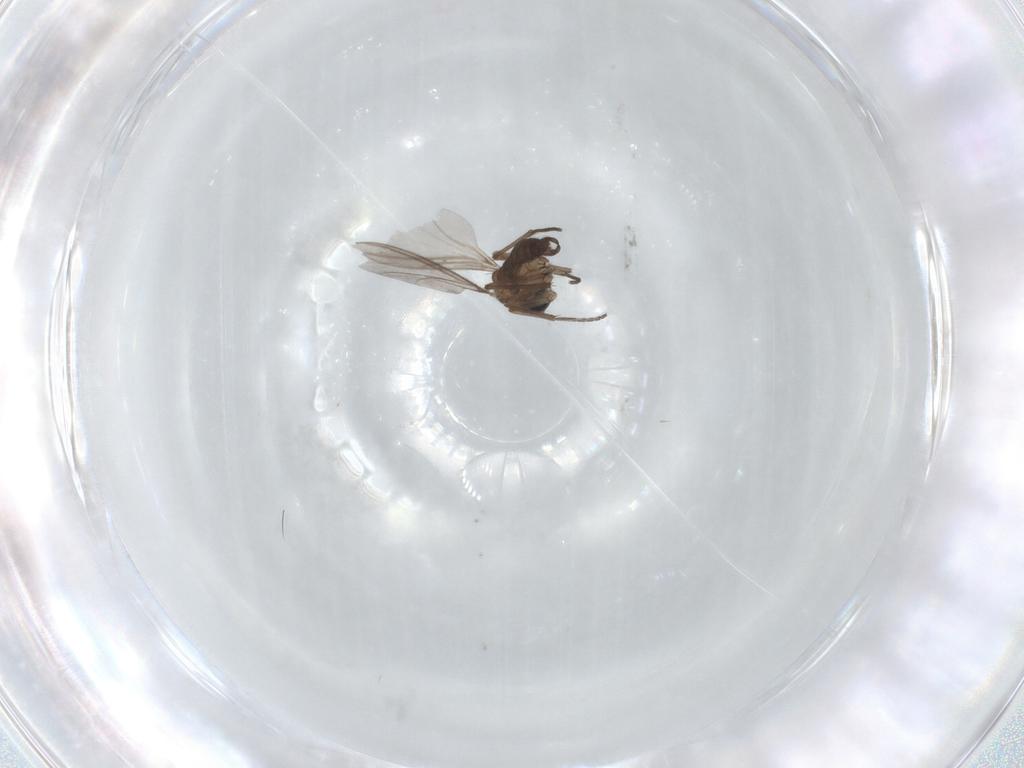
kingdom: Animalia
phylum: Arthropoda
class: Insecta
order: Diptera
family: Sciaridae
